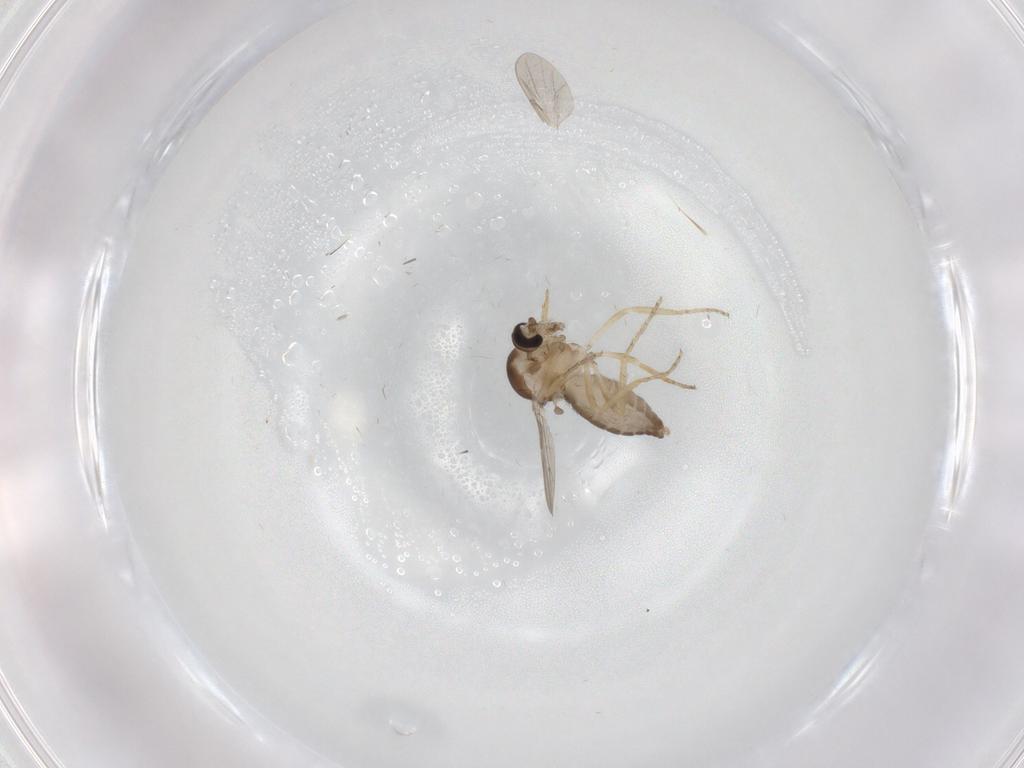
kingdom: Animalia
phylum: Arthropoda
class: Insecta
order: Diptera
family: Ceratopogonidae
